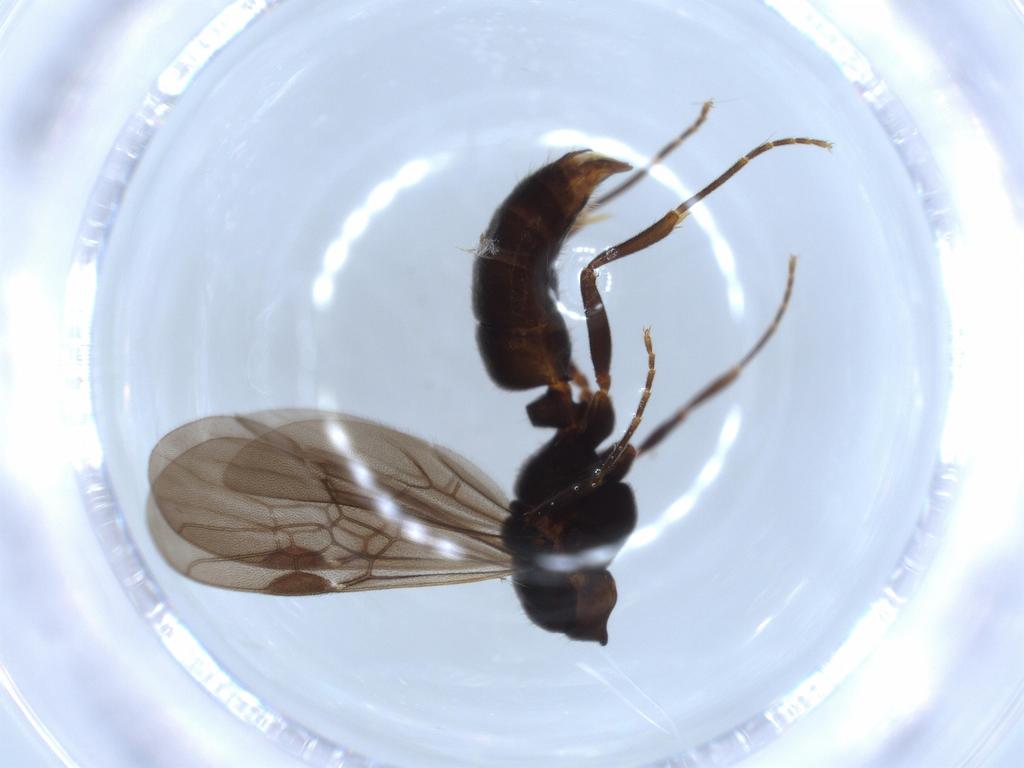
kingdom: Animalia
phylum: Arthropoda
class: Insecta
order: Hymenoptera
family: Formicidae
